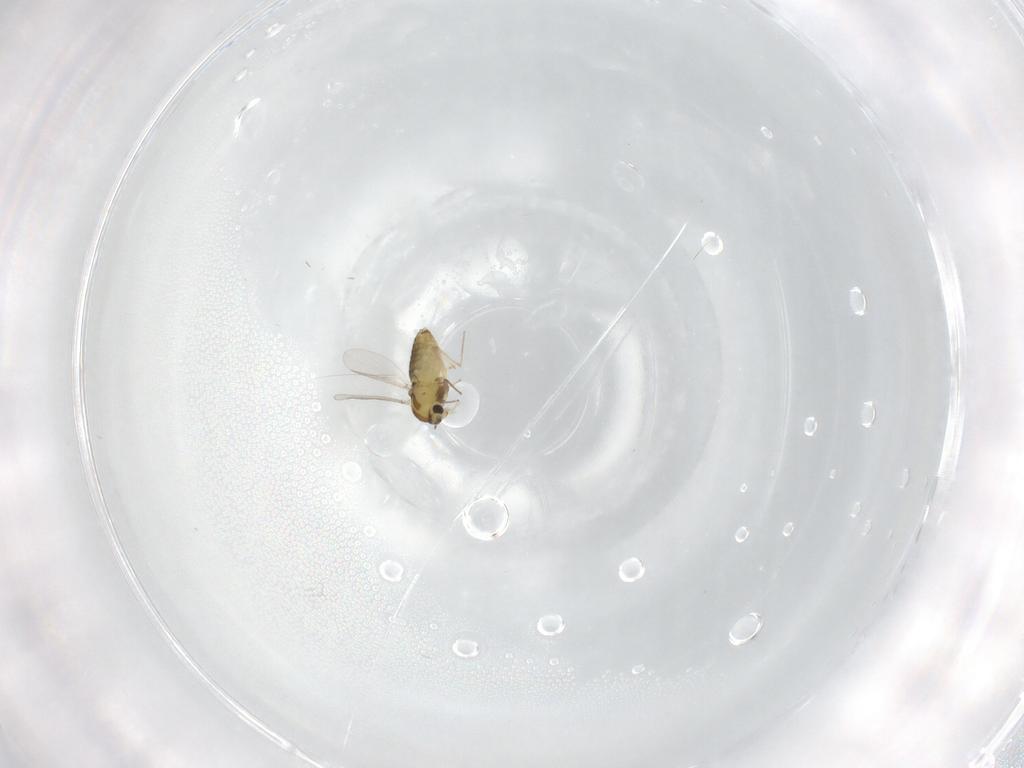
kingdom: Animalia
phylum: Arthropoda
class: Insecta
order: Diptera
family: Chironomidae
